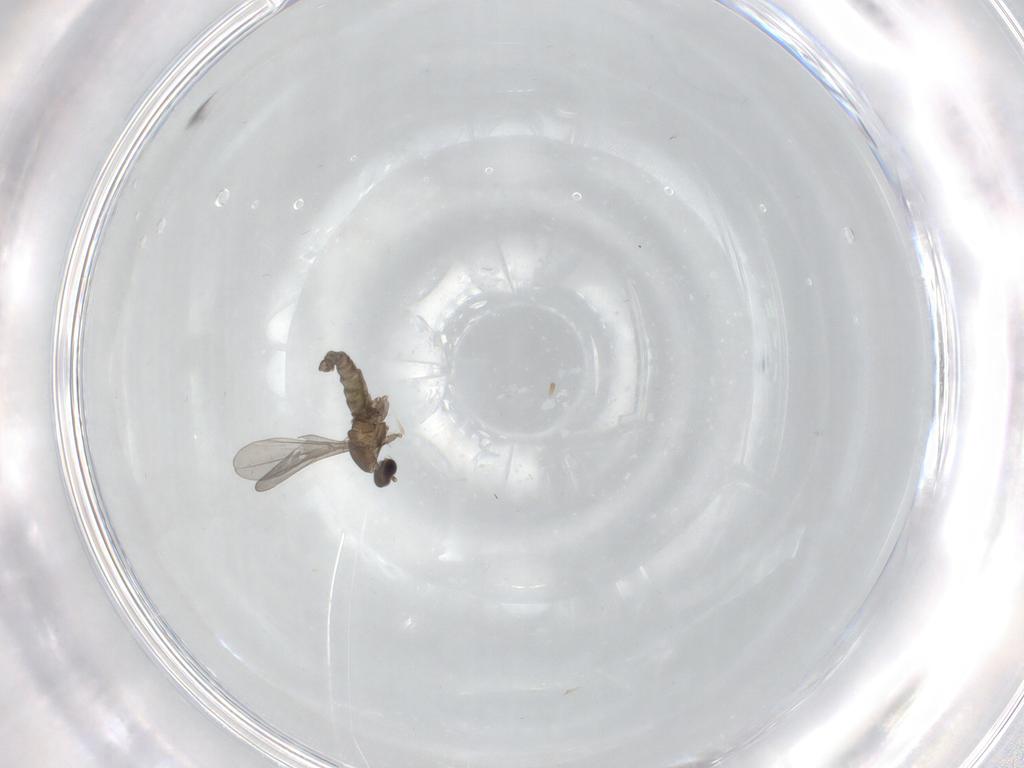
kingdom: Animalia
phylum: Arthropoda
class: Insecta
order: Diptera
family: Cecidomyiidae
